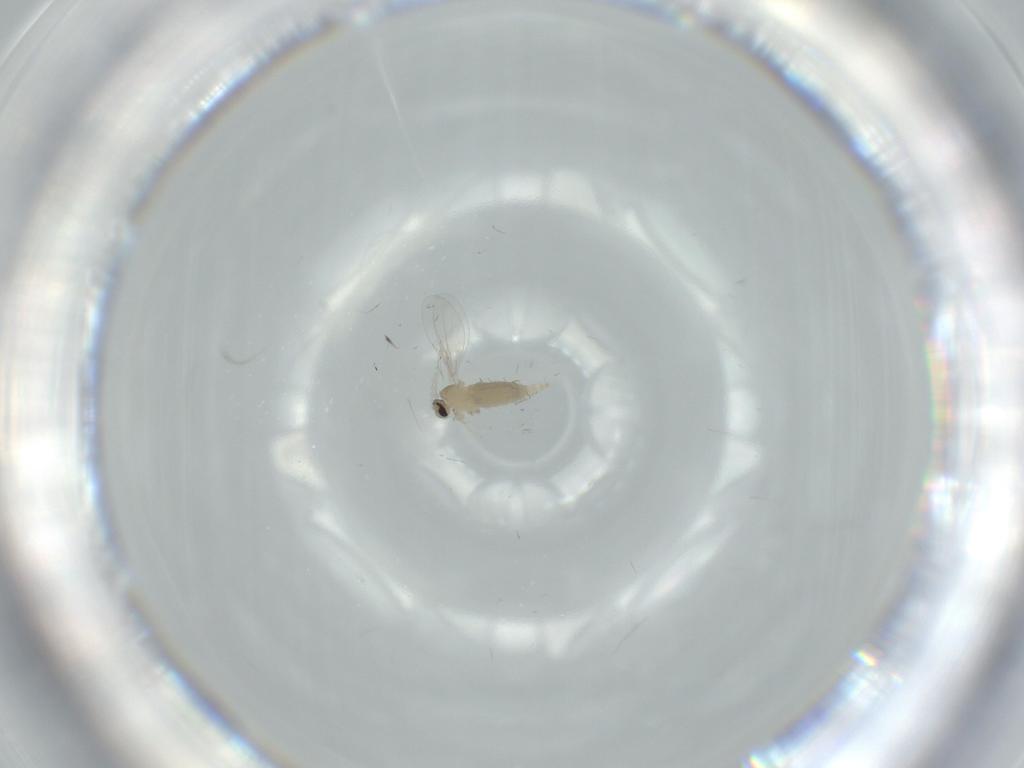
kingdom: Animalia
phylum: Arthropoda
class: Insecta
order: Diptera
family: Cecidomyiidae
